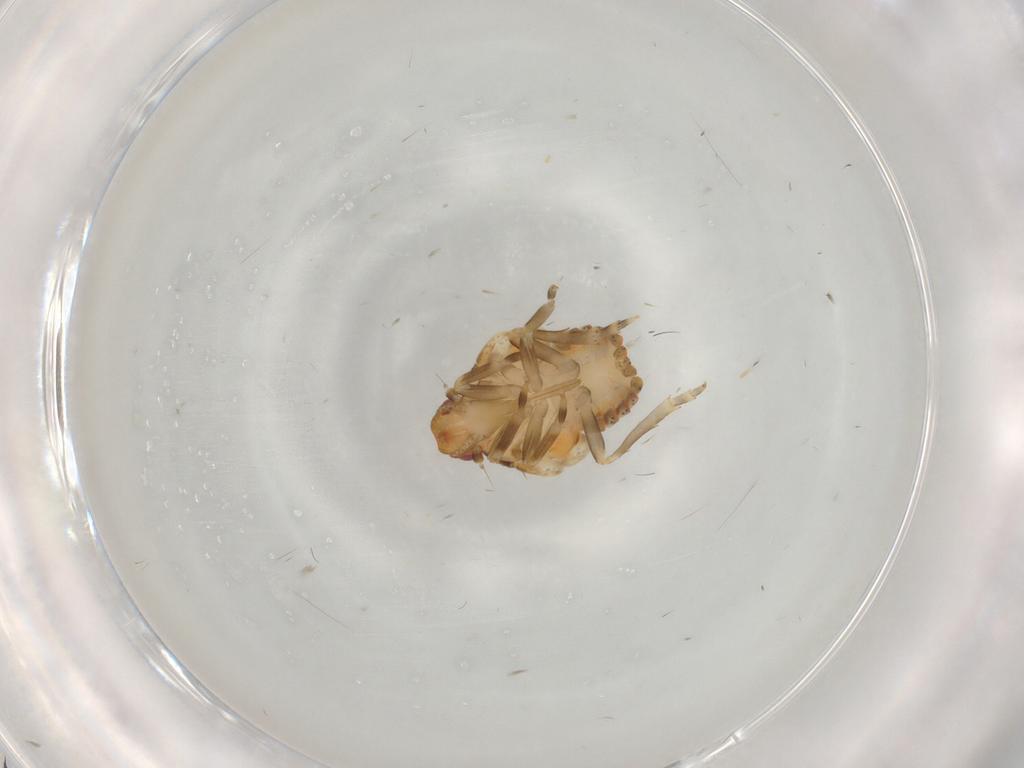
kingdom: Animalia
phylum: Arthropoda
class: Insecta
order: Hemiptera
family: Flatidae
